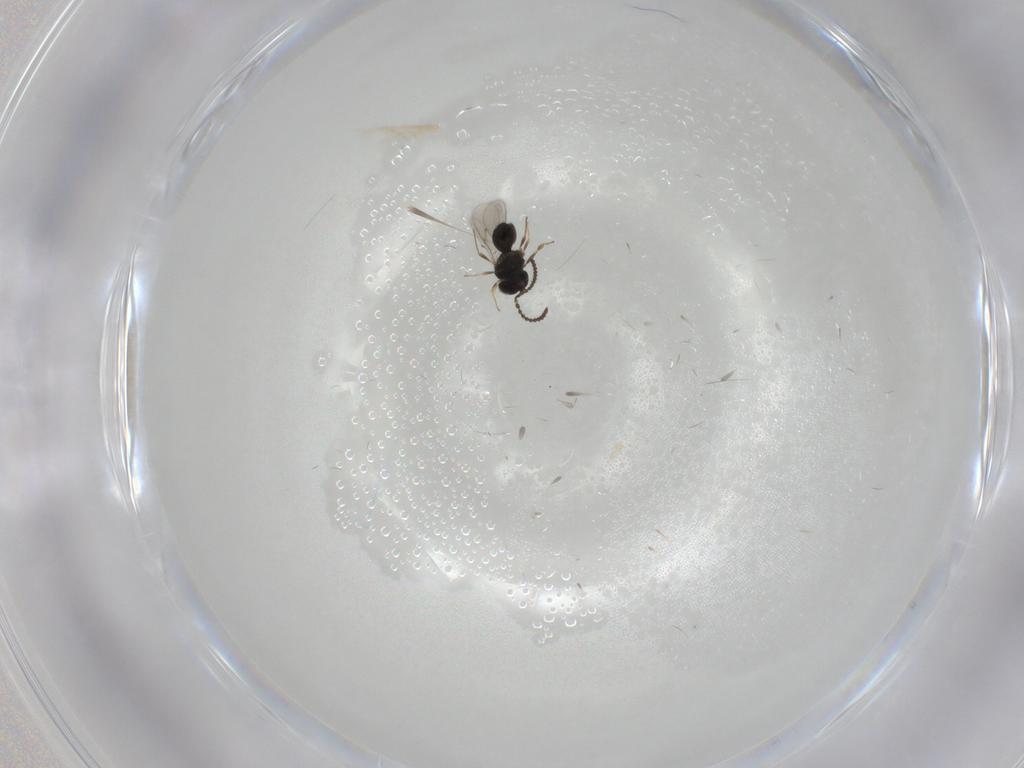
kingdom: Animalia
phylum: Arthropoda
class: Insecta
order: Hymenoptera
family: Scelionidae
